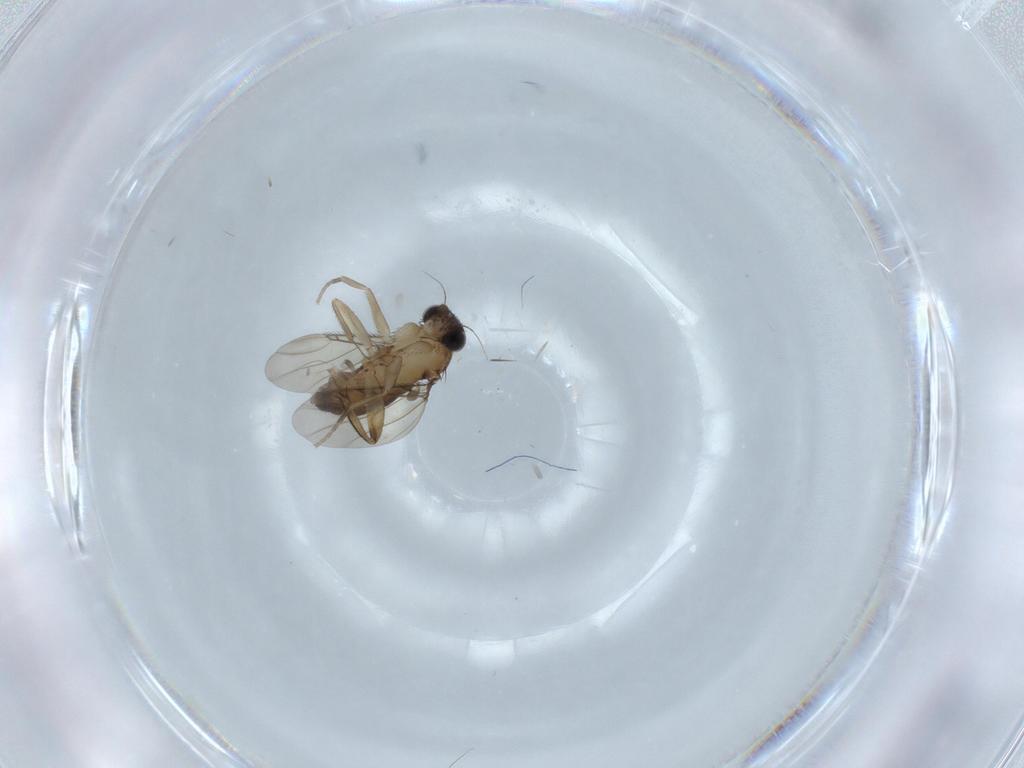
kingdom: Animalia
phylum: Arthropoda
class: Insecta
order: Diptera
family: Phoridae
